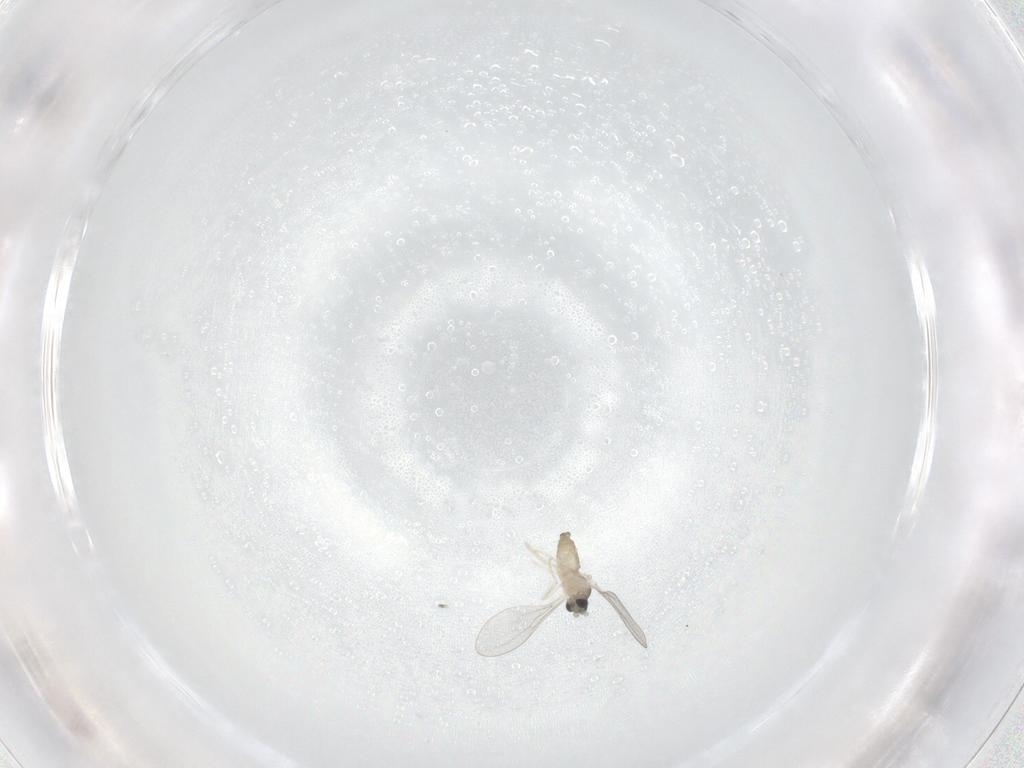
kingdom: Animalia
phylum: Arthropoda
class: Insecta
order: Diptera
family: Cecidomyiidae
